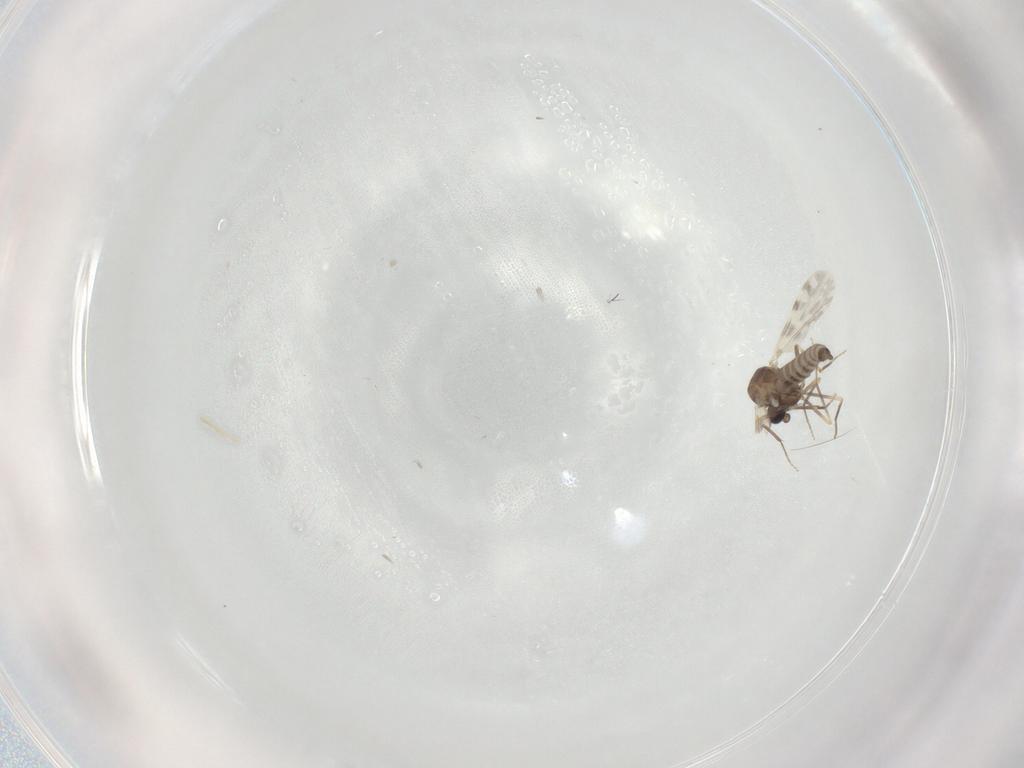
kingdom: Animalia
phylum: Arthropoda
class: Insecta
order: Diptera
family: Ceratopogonidae
